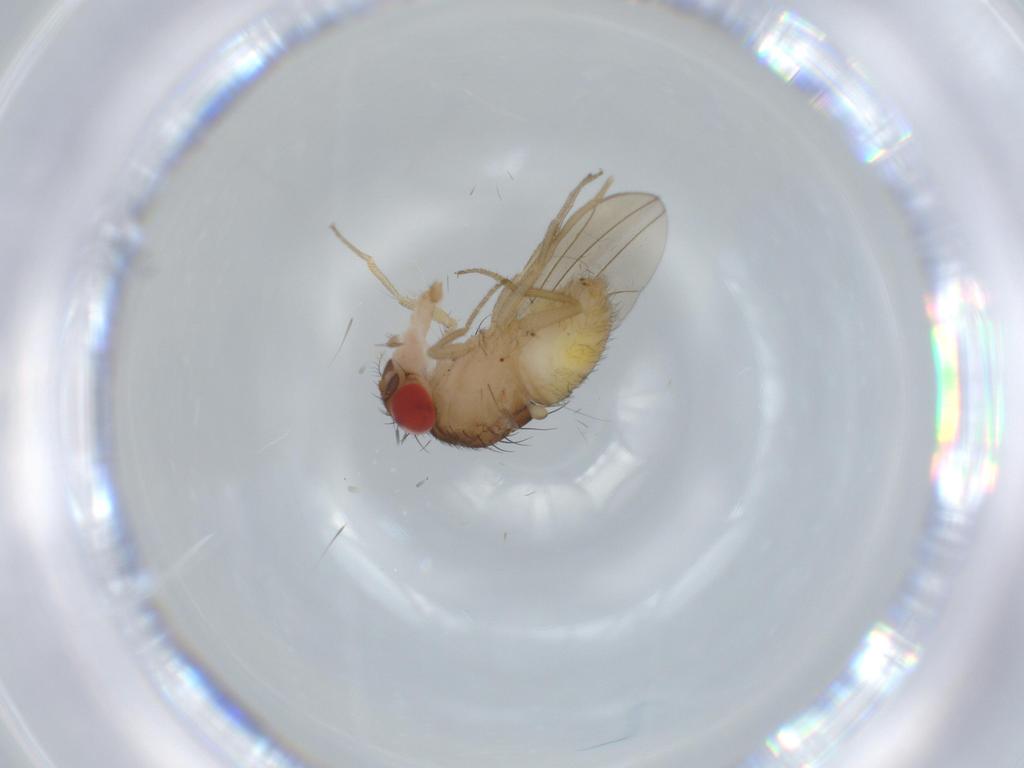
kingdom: Animalia
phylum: Arthropoda
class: Insecta
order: Diptera
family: Drosophilidae
